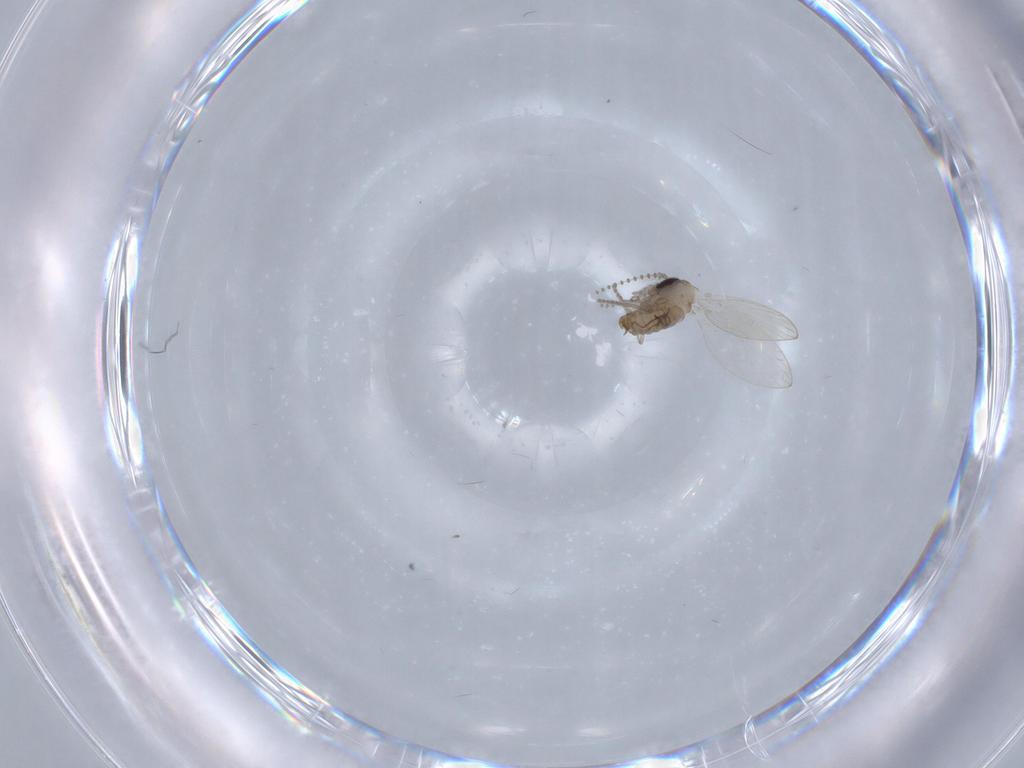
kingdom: Animalia
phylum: Arthropoda
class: Insecta
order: Diptera
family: Psychodidae
